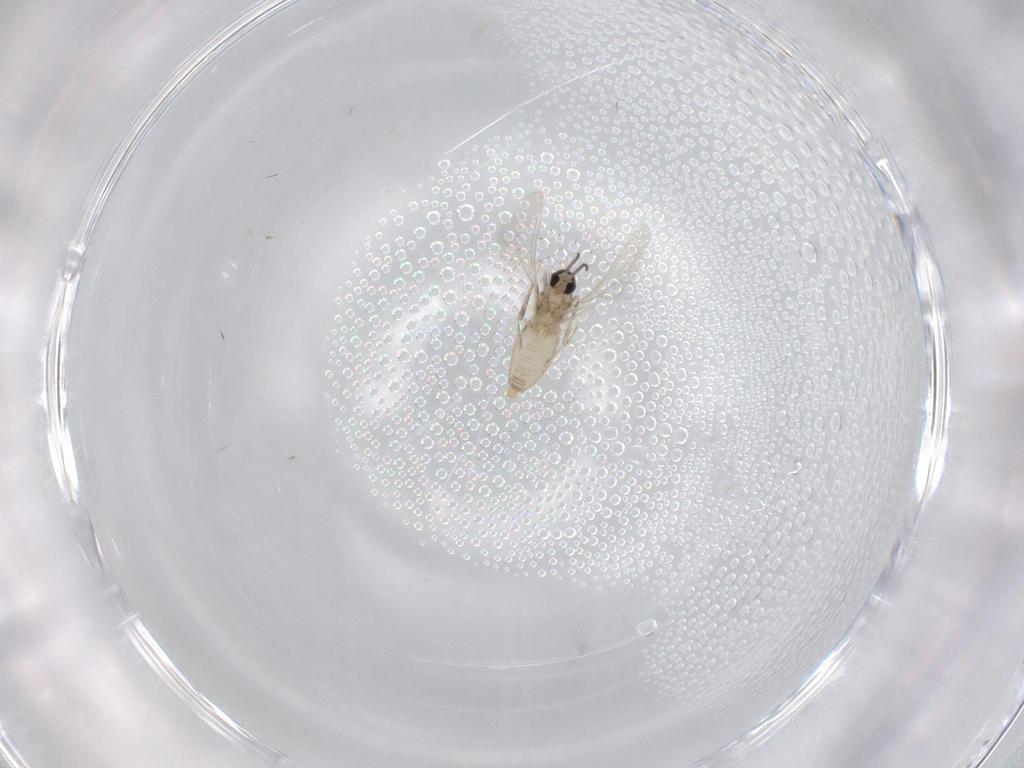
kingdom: Animalia
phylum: Arthropoda
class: Insecta
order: Diptera
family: Cecidomyiidae
